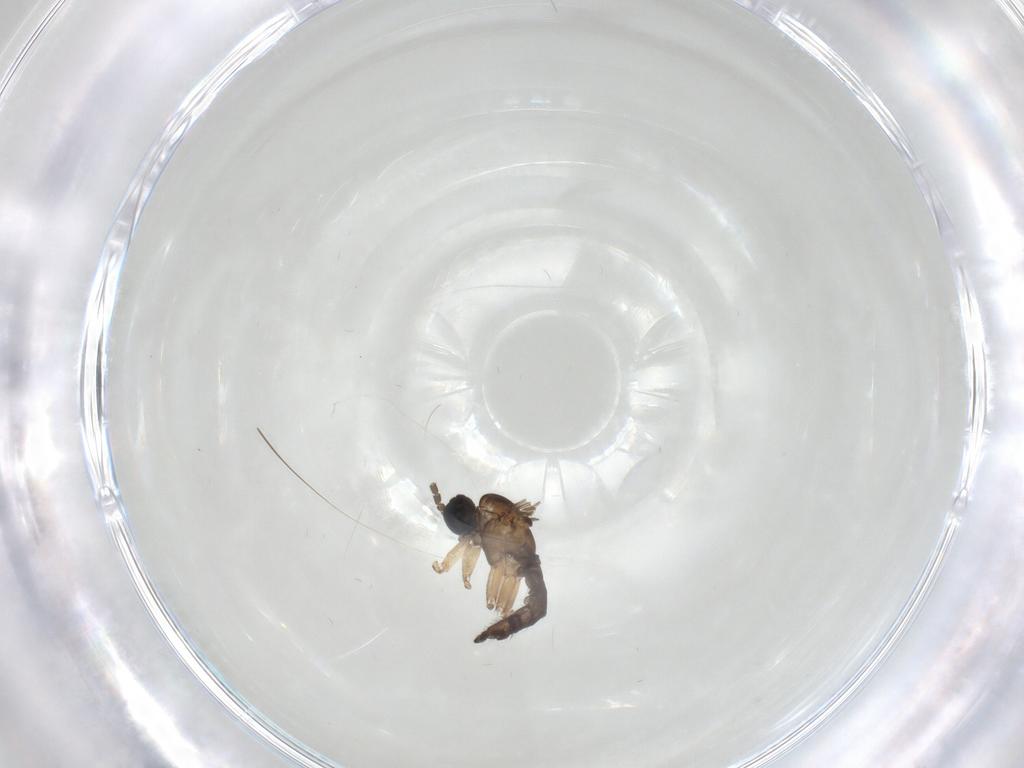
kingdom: Animalia
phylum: Arthropoda
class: Insecta
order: Diptera
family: Sciaridae
